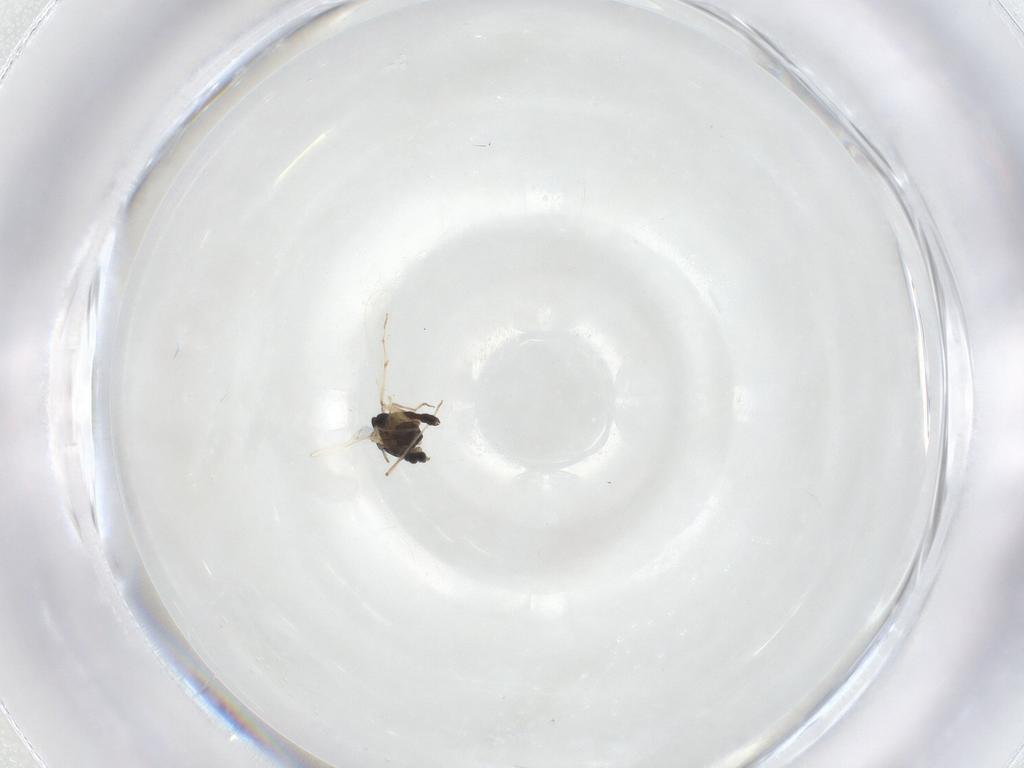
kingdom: Animalia
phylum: Arthropoda
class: Insecta
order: Diptera
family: Chironomidae
